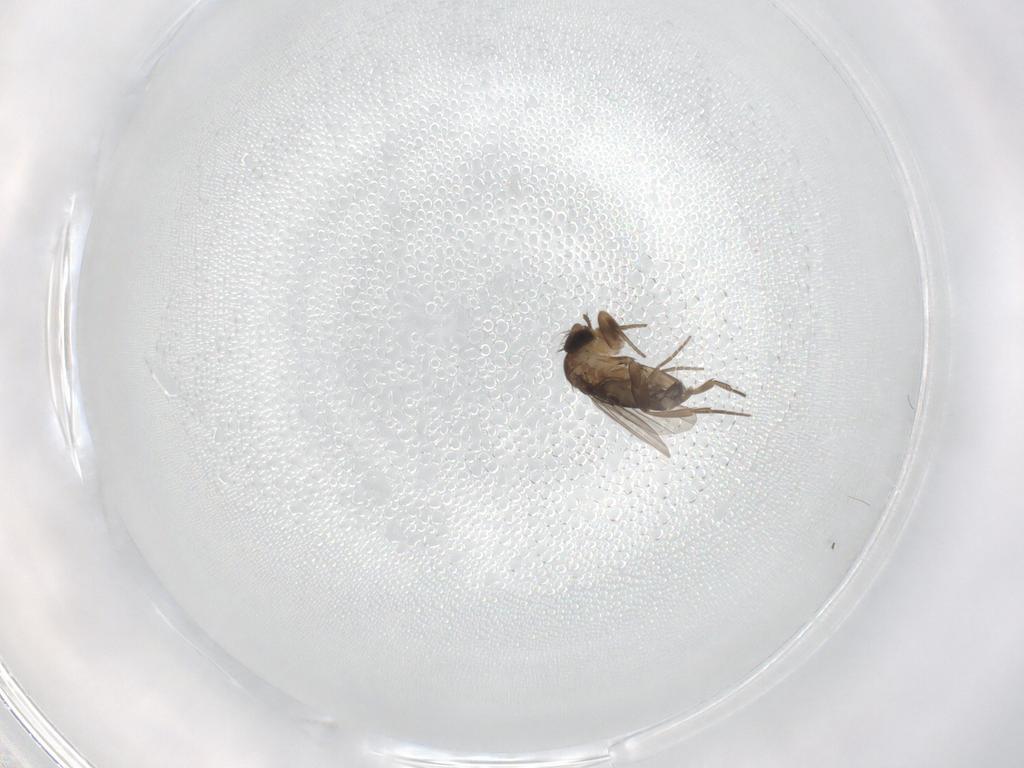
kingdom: Animalia
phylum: Arthropoda
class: Insecta
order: Diptera
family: Phoridae
